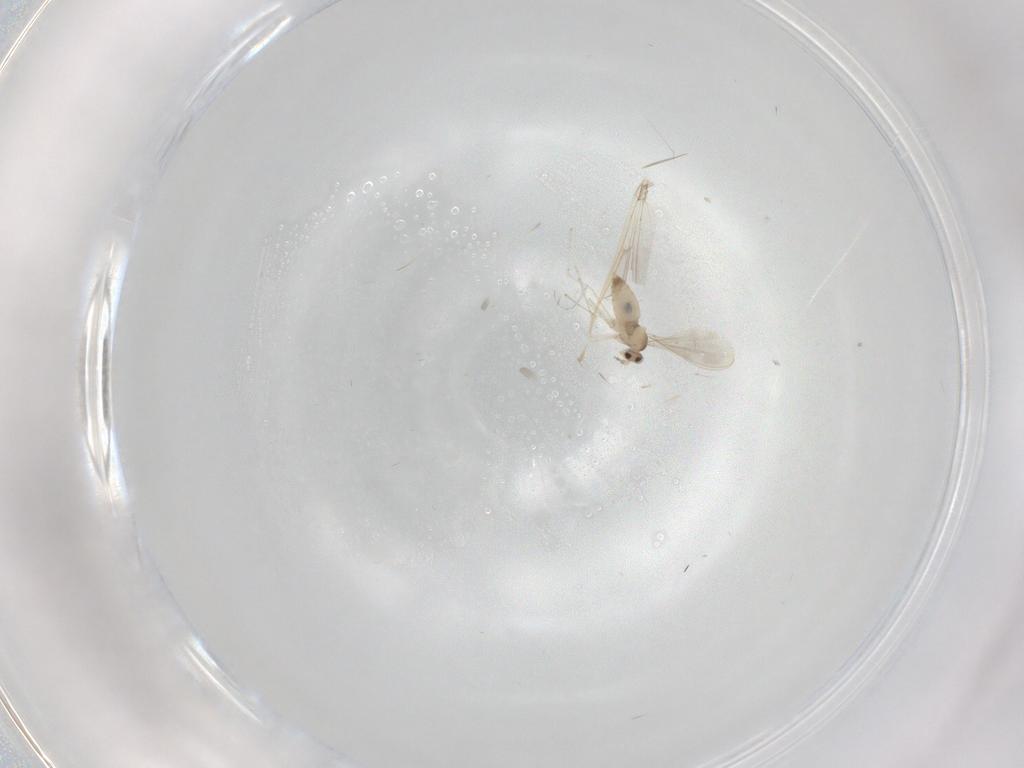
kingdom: Animalia
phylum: Arthropoda
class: Insecta
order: Diptera
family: Cecidomyiidae
